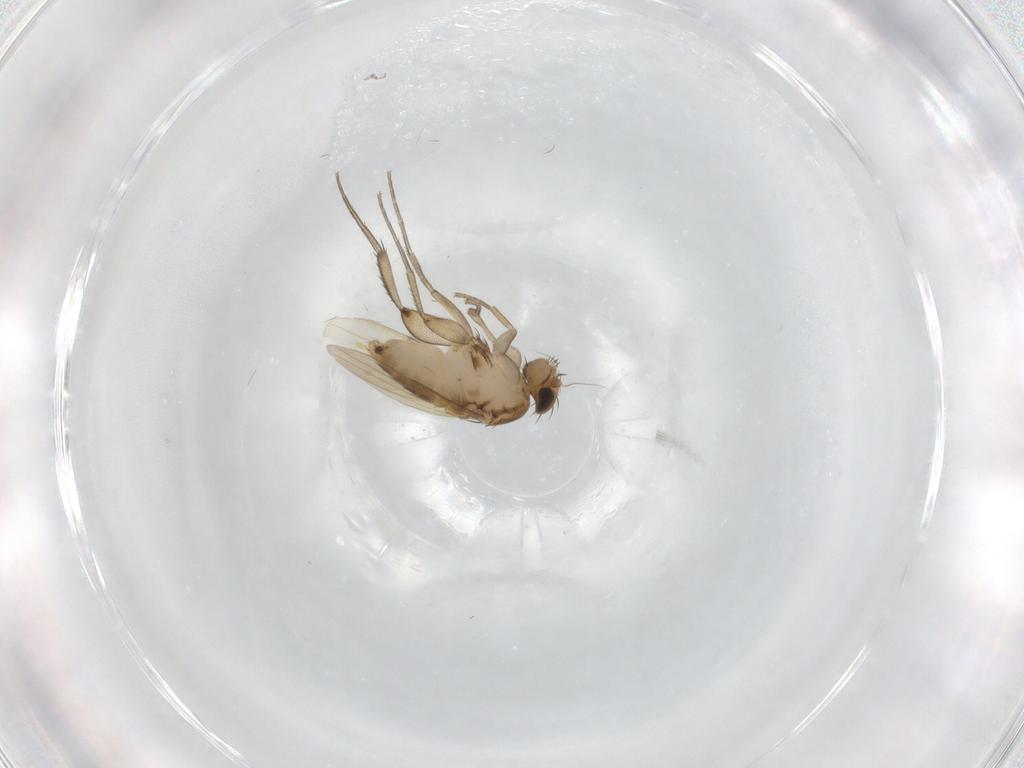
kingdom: Animalia
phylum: Arthropoda
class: Insecta
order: Diptera
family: Phoridae
